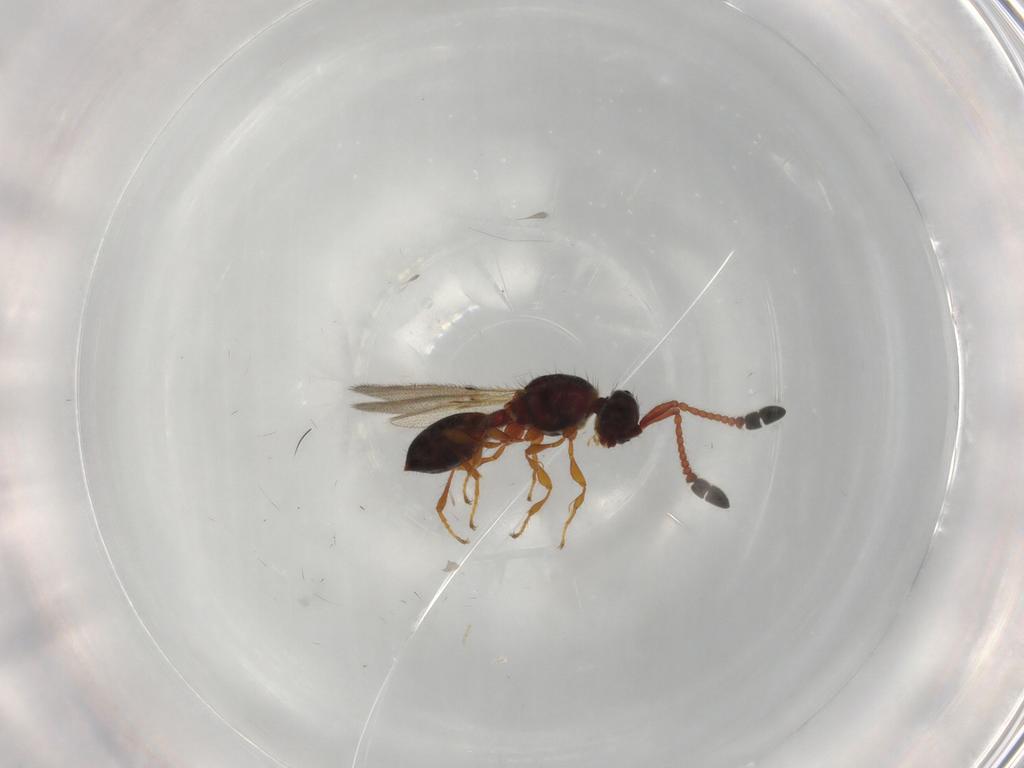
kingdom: Animalia
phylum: Arthropoda
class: Insecta
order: Hymenoptera
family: Diapriidae
